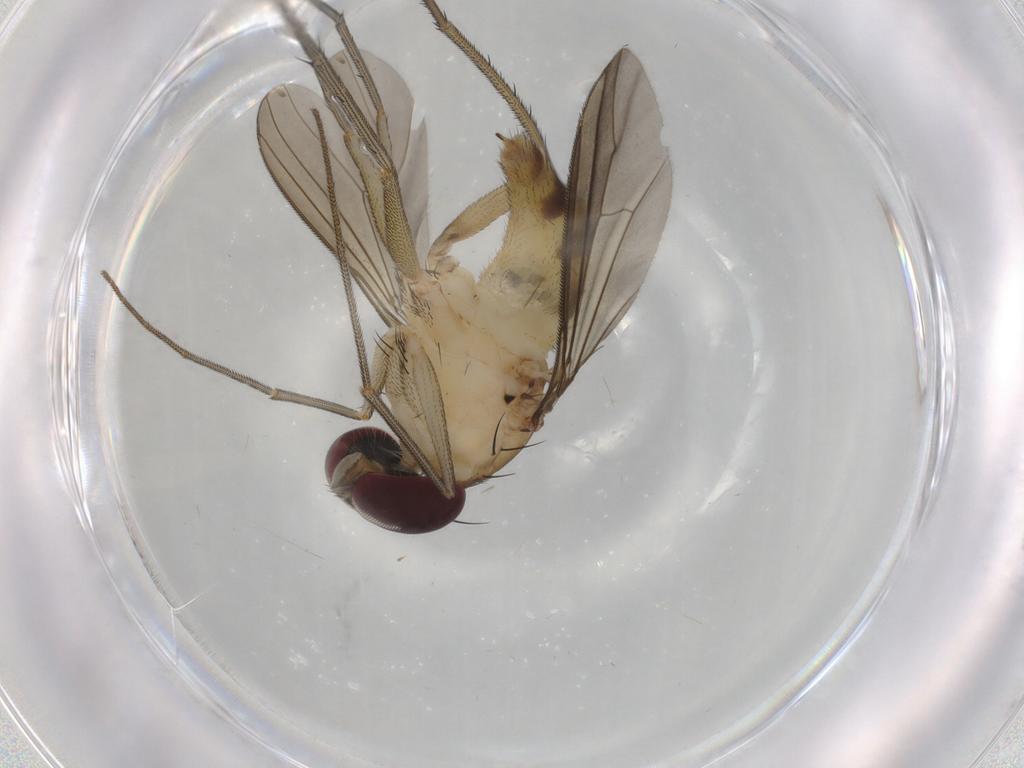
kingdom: Animalia
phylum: Arthropoda
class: Insecta
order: Diptera
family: Dolichopodidae
